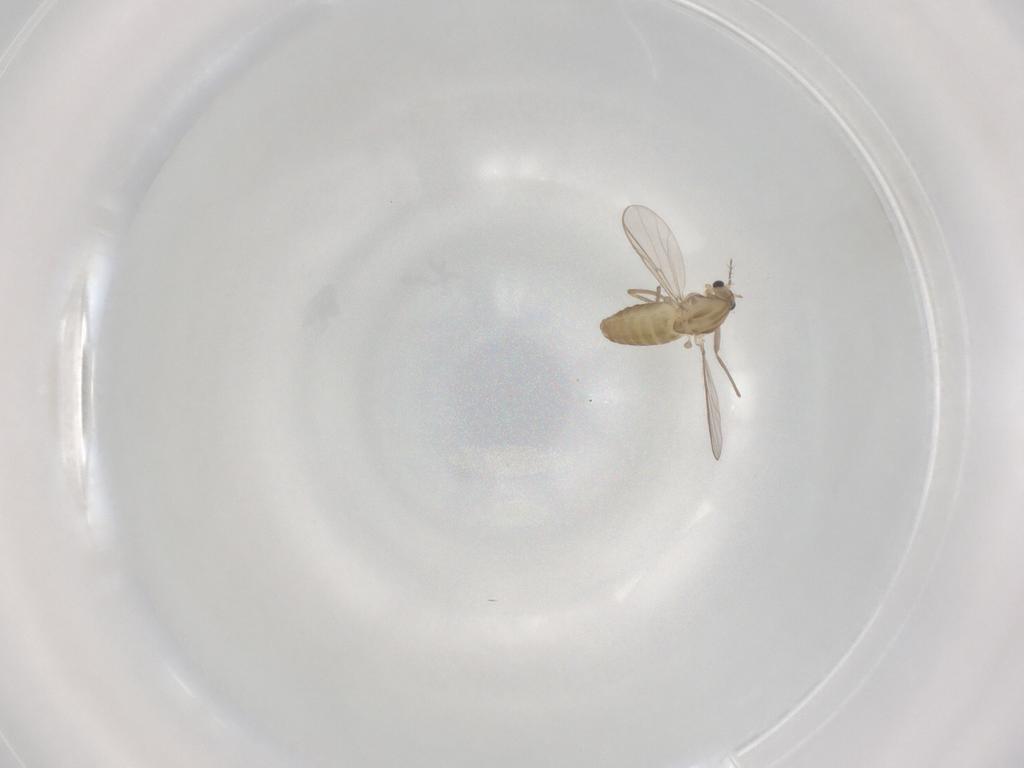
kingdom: Animalia
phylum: Arthropoda
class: Insecta
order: Diptera
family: Chironomidae
